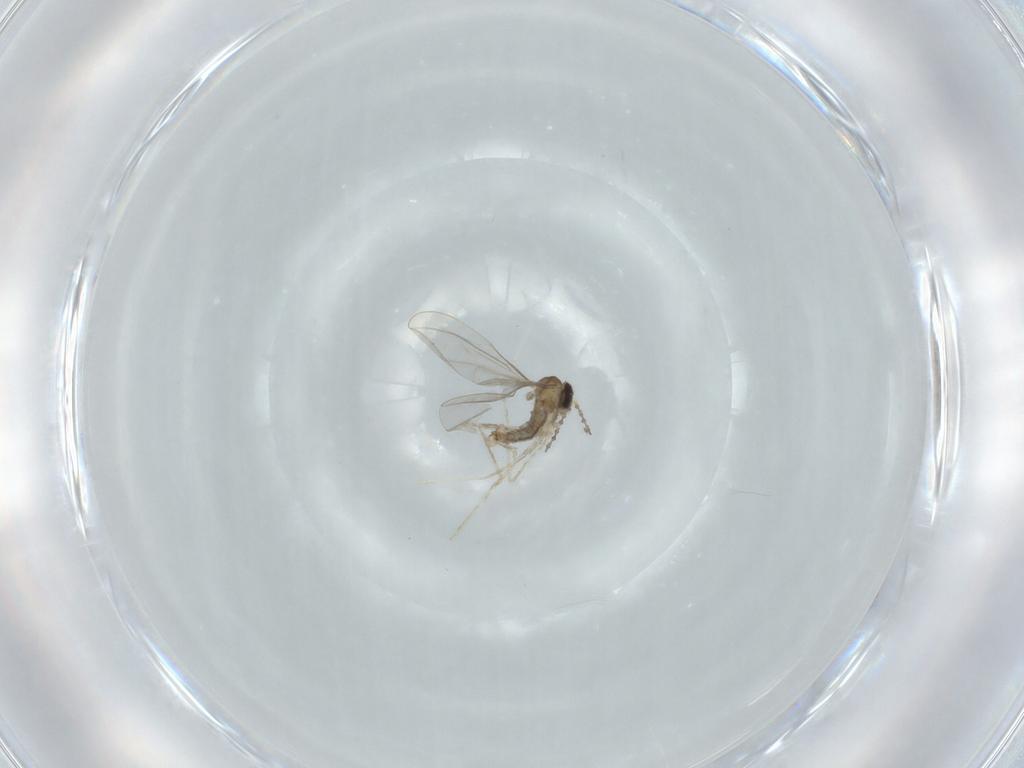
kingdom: Animalia
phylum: Arthropoda
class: Insecta
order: Diptera
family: Cecidomyiidae
